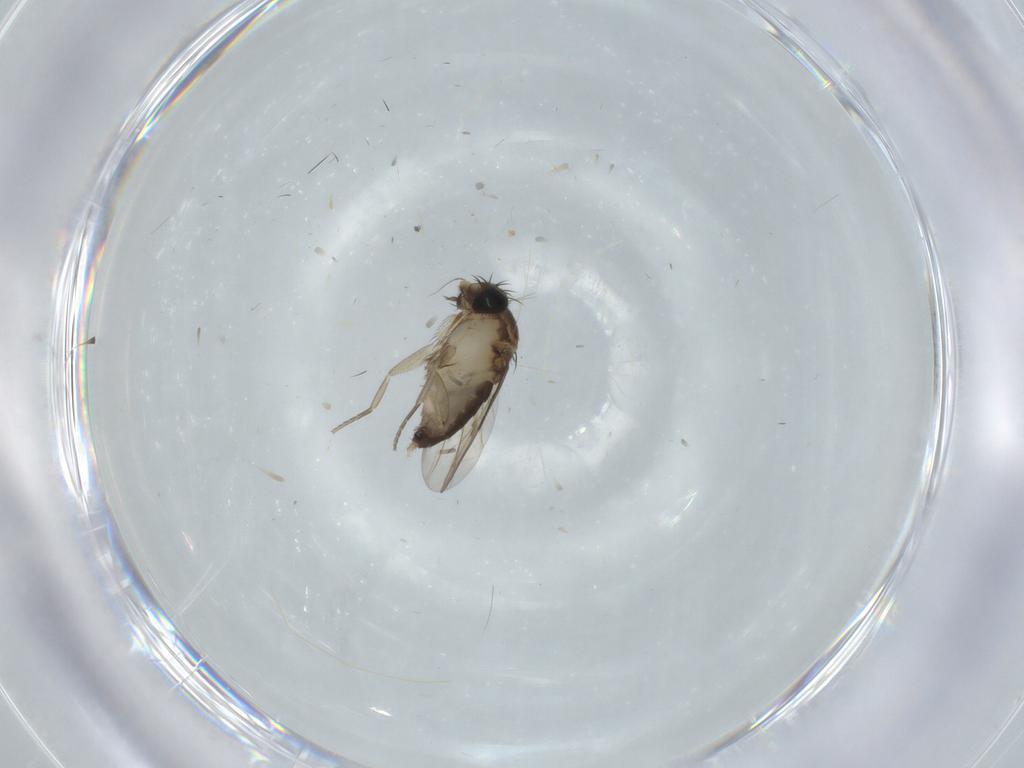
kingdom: Animalia
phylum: Arthropoda
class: Insecta
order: Diptera
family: Phoridae
